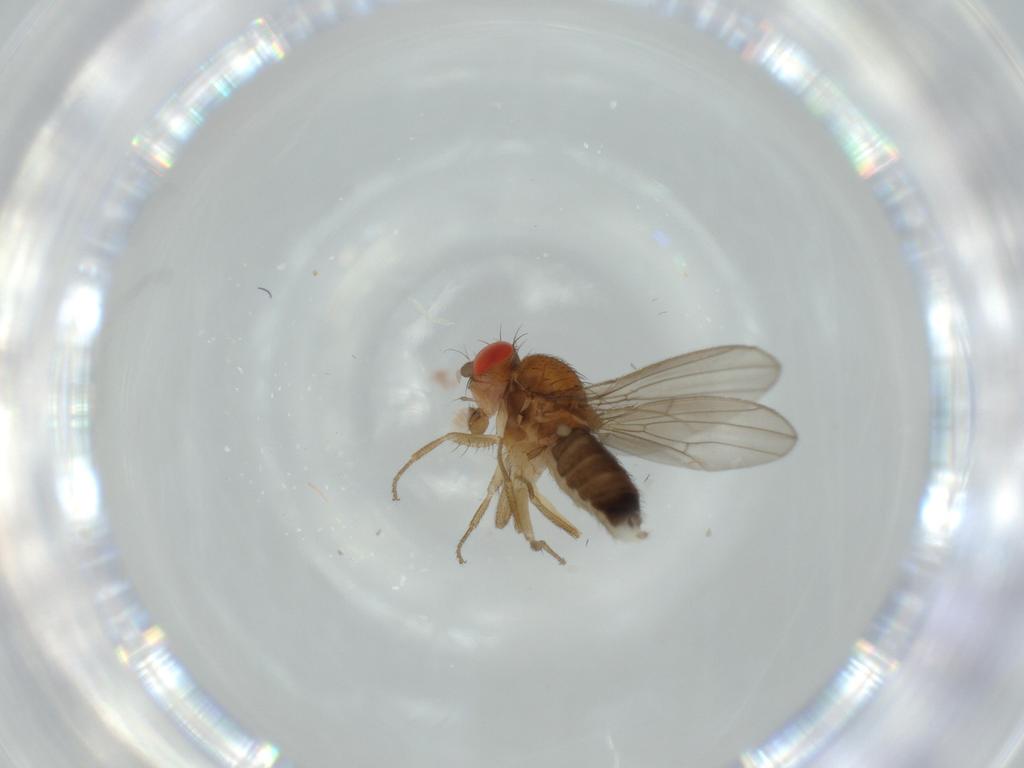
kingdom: Animalia
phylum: Arthropoda
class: Insecta
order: Diptera
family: Drosophilidae
